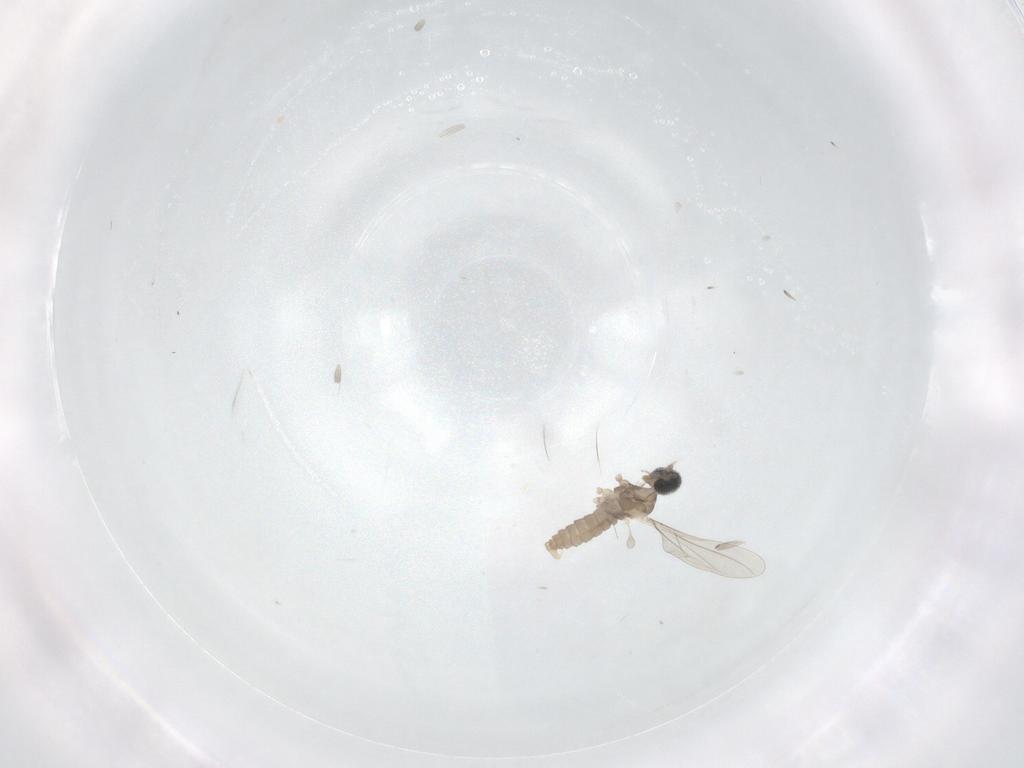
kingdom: Animalia
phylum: Arthropoda
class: Insecta
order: Diptera
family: Cecidomyiidae
